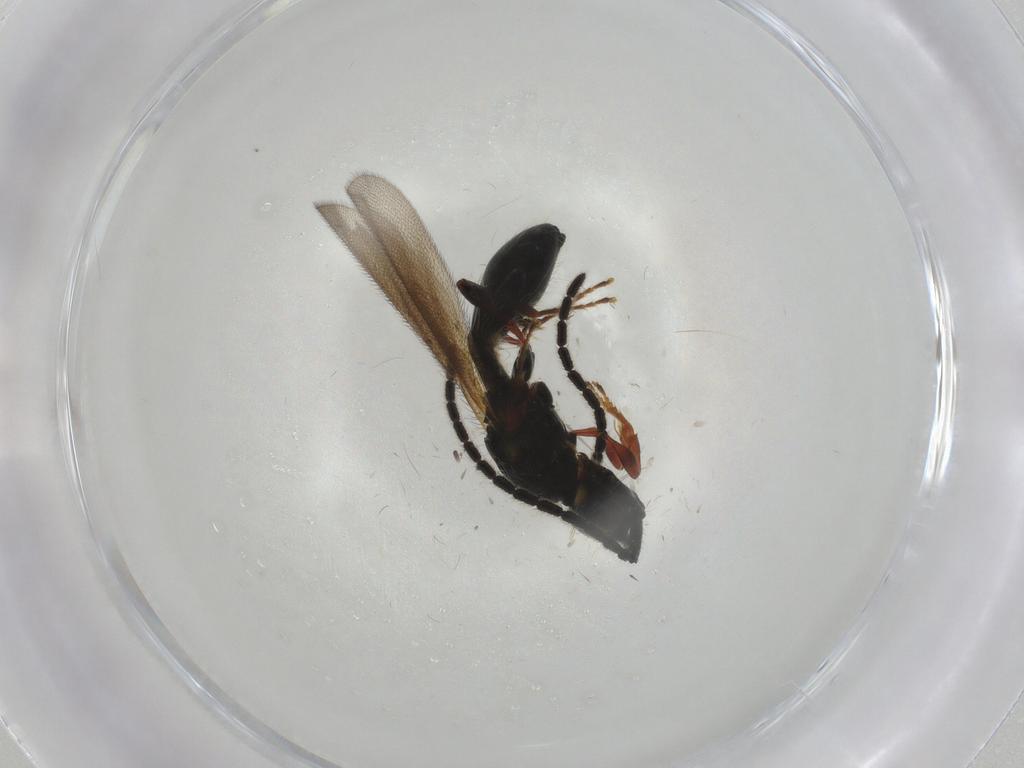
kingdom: Animalia
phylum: Arthropoda
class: Insecta
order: Hymenoptera
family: Diapriidae
